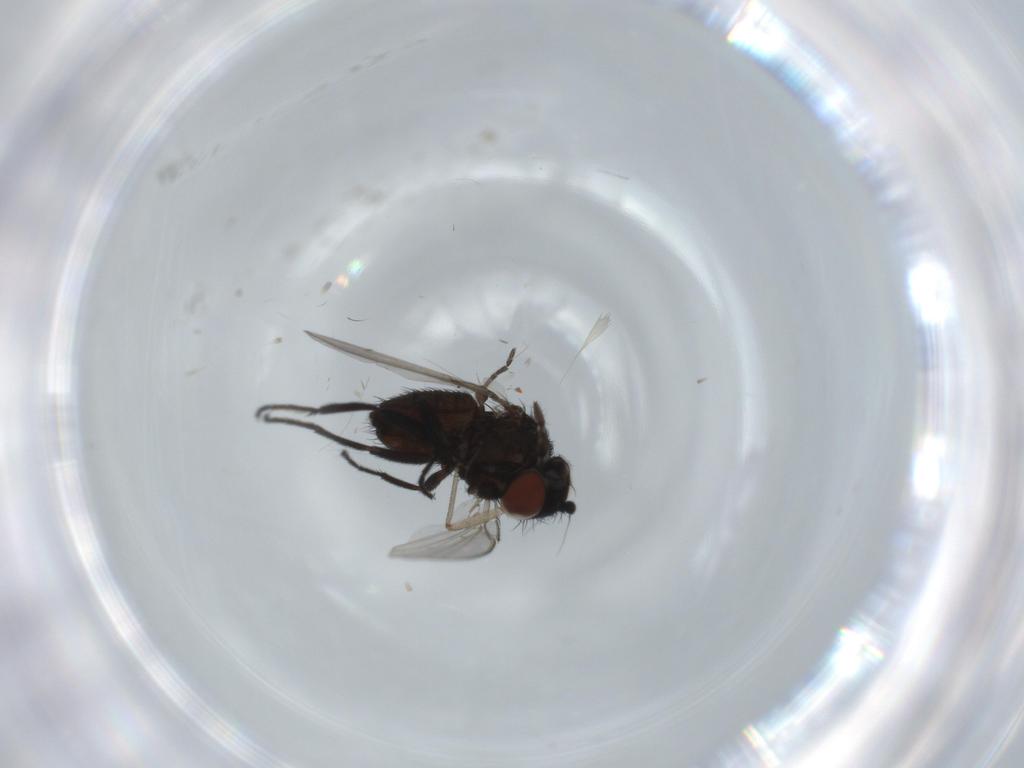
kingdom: Animalia
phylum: Arthropoda
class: Insecta
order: Diptera
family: Milichiidae
